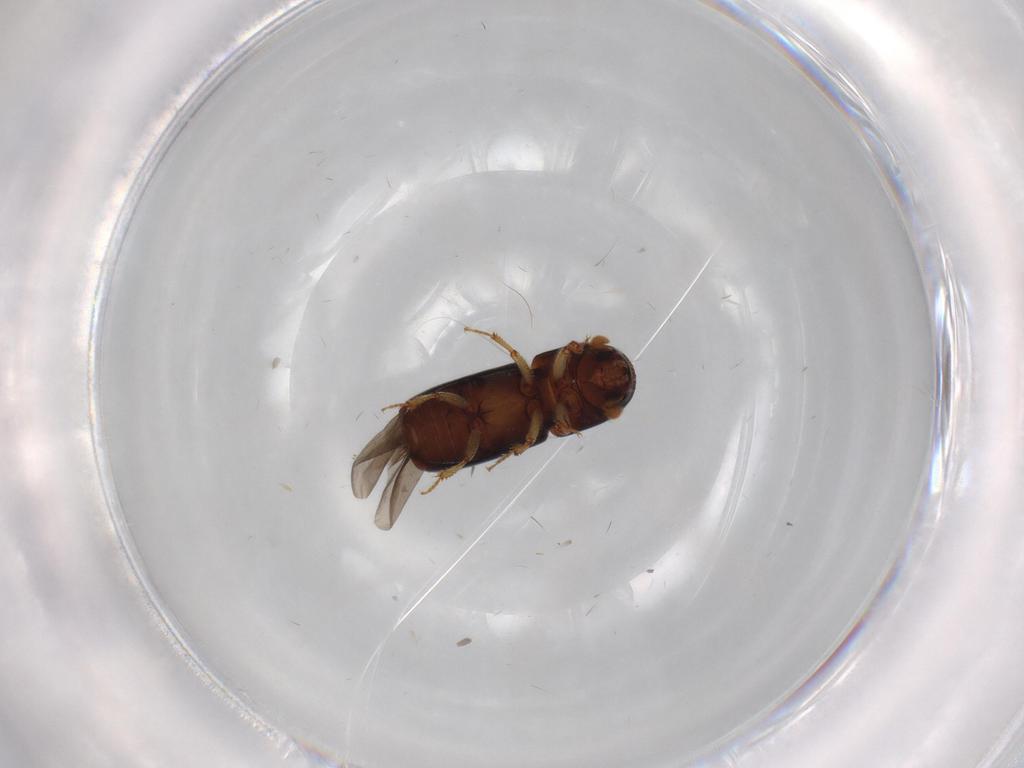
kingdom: Animalia
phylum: Arthropoda
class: Insecta
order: Coleoptera
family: Curculionidae
